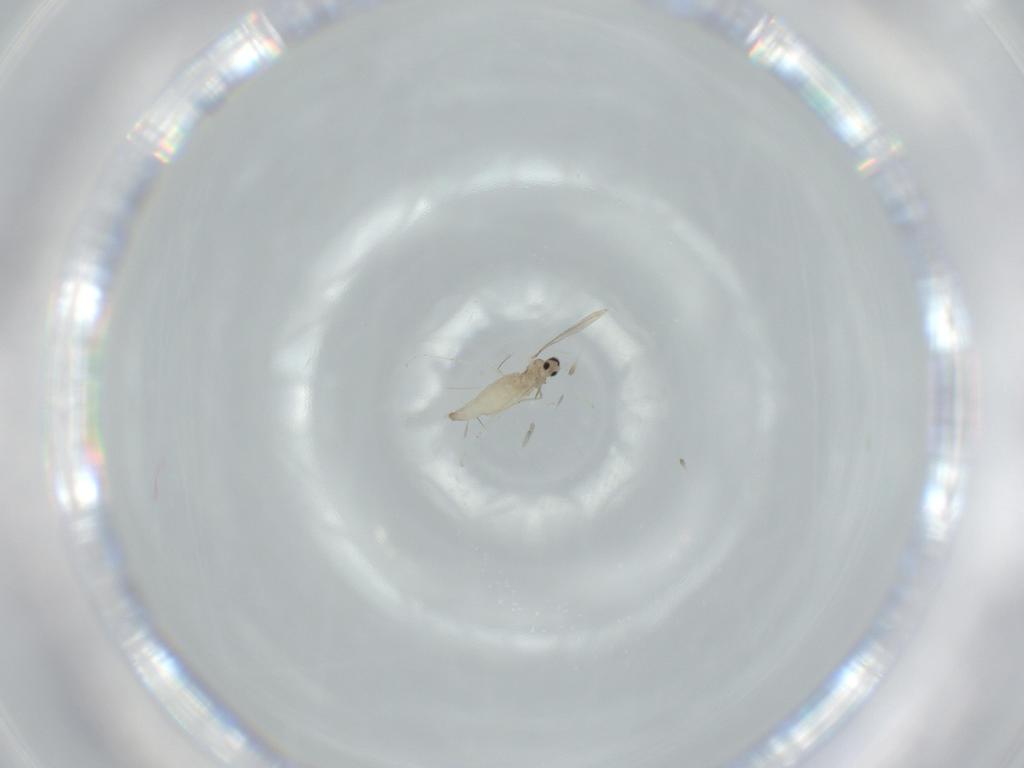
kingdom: Animalia
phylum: Arthropoda
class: Insecta
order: Diptera
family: Cecidomyiidae
